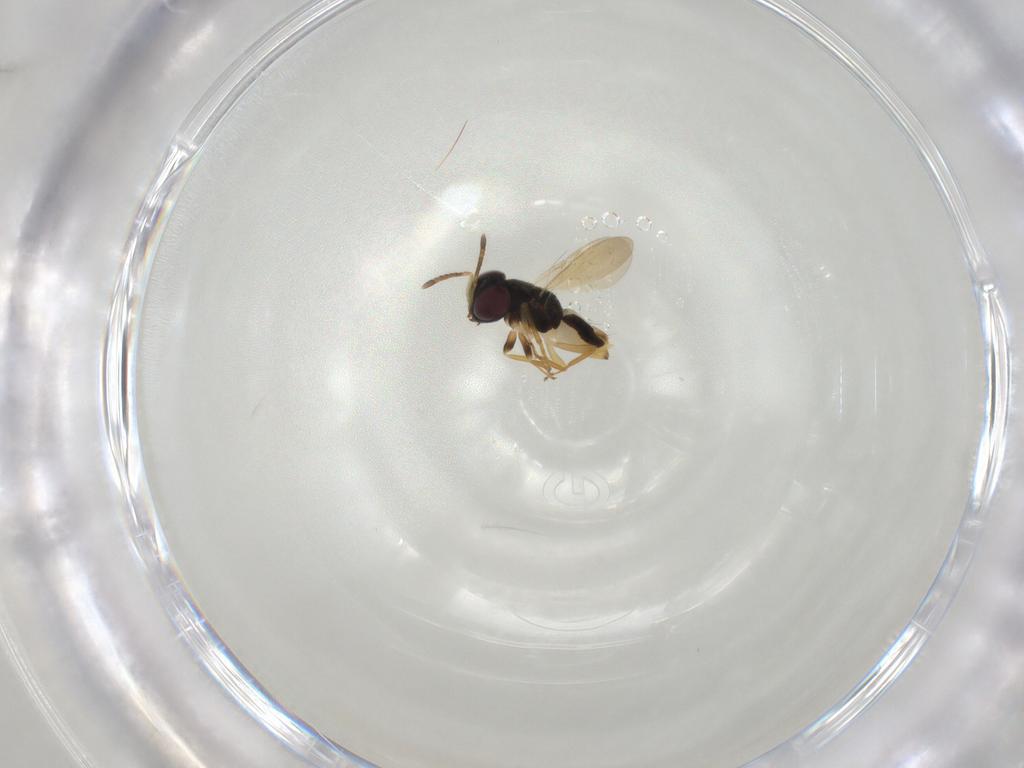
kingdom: Animalia
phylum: Arthropoda
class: Insecta
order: Hymenoptera
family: Encyrtidae
